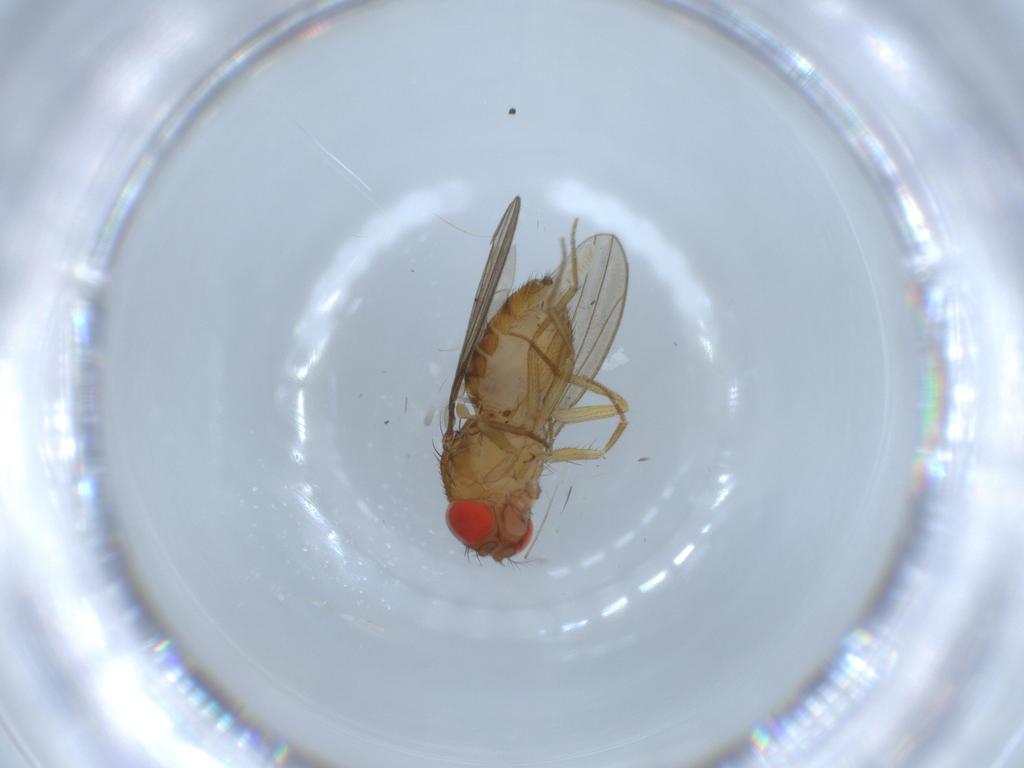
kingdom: Animalia
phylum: Arthropoda
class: Insecta
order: Diptera
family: Drosophilidae
